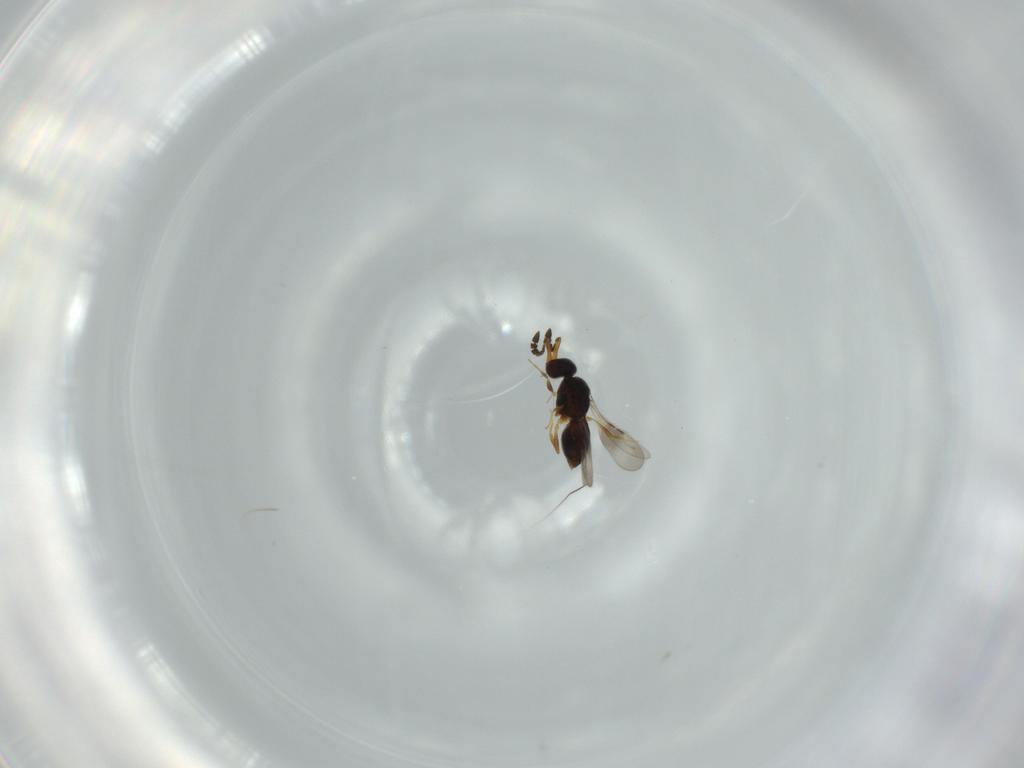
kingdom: Animalia
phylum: Arthropoda
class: Insecta
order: Hymenoptera
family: Ceraphronidae
